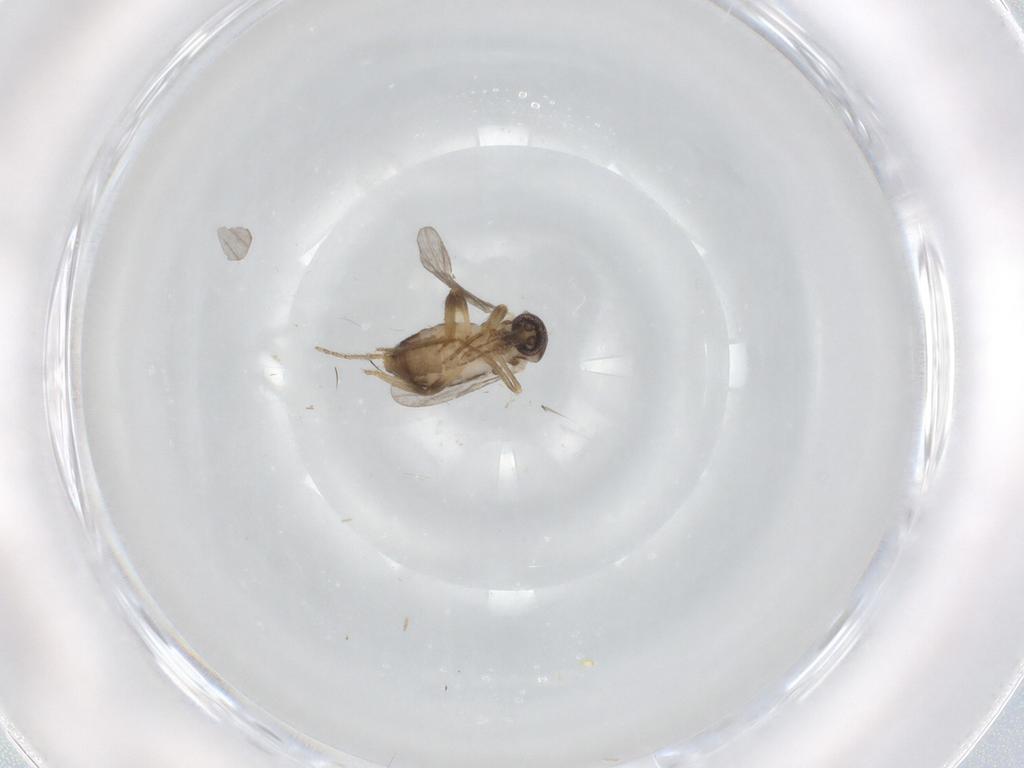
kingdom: Animalia
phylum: Arthropoda
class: Insecta
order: Diptera
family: Ceratopogonidae
